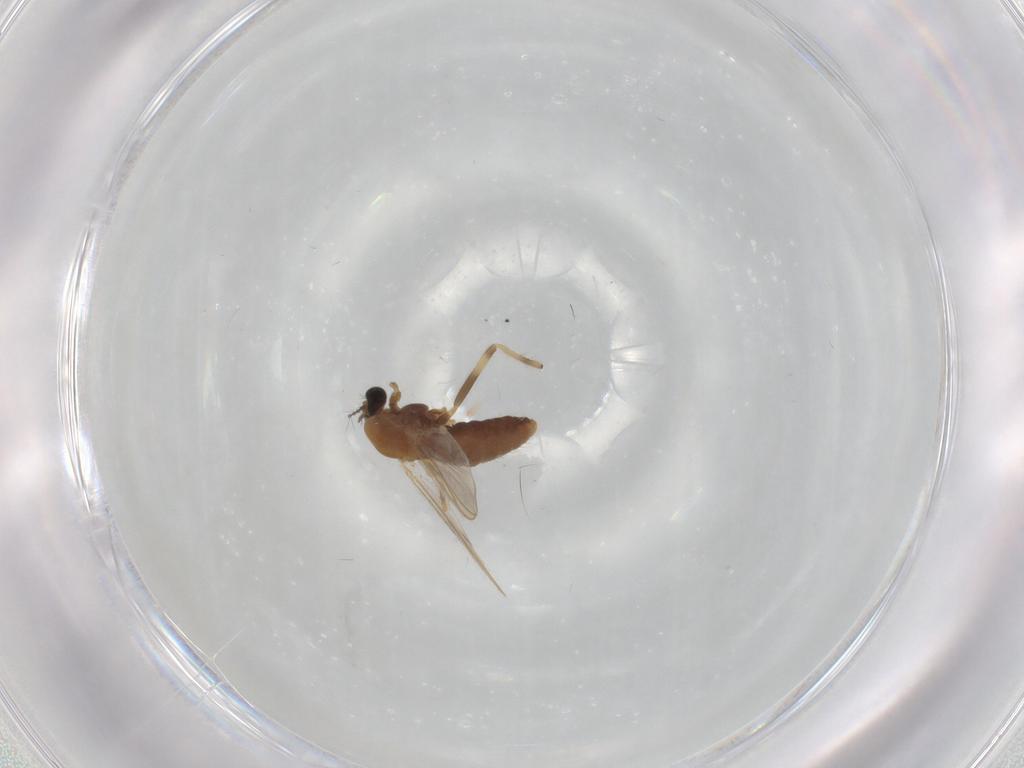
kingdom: Animalia
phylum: Arthropoda
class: Insecta
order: Diptera
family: Chironomidae
